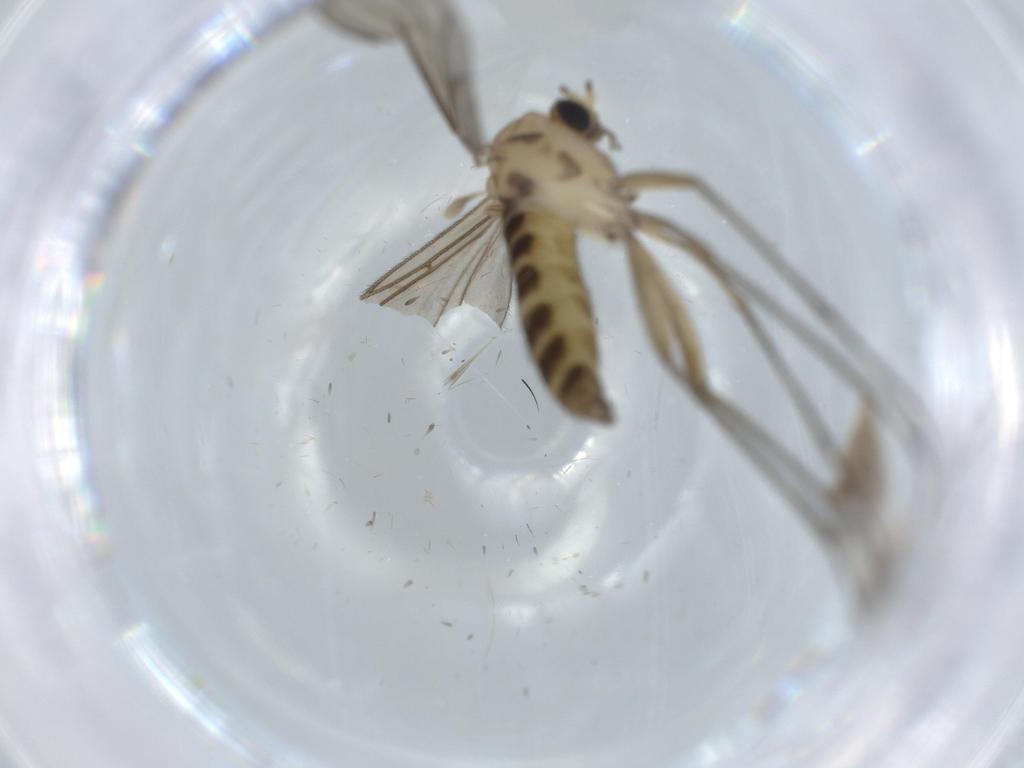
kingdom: Animalia
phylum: Arthropoda
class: Insecta
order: Diptera
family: Sciaridae
